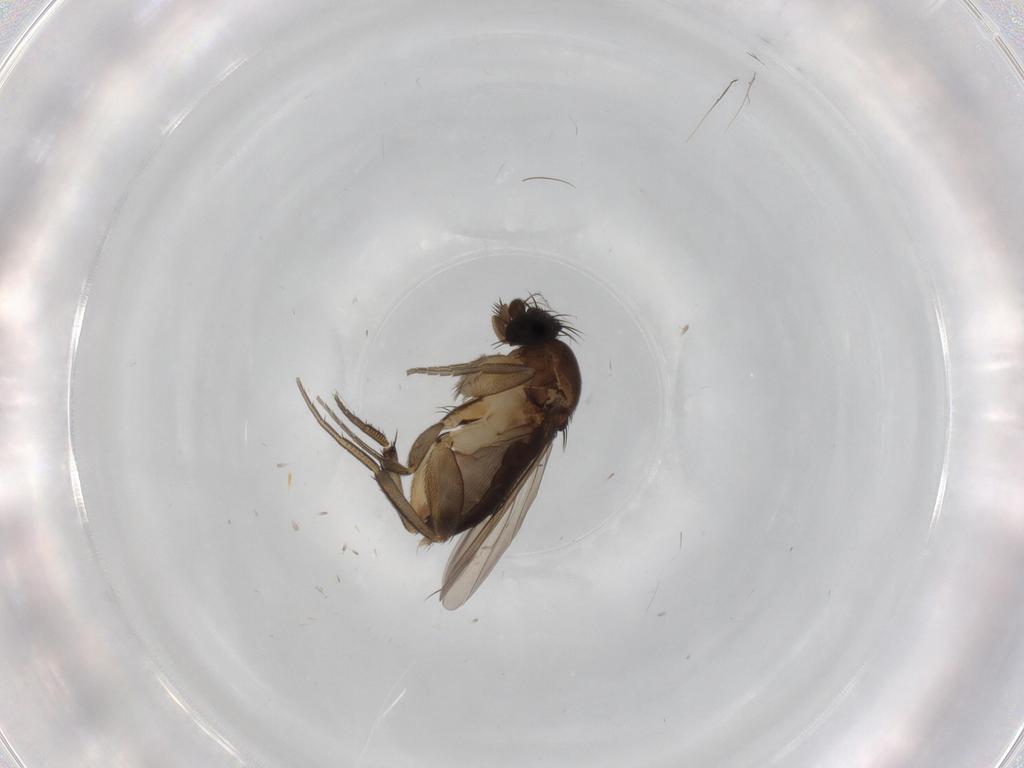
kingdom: Animalia
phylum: Arthropoda
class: Insecta
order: Diptera
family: Phoridae
